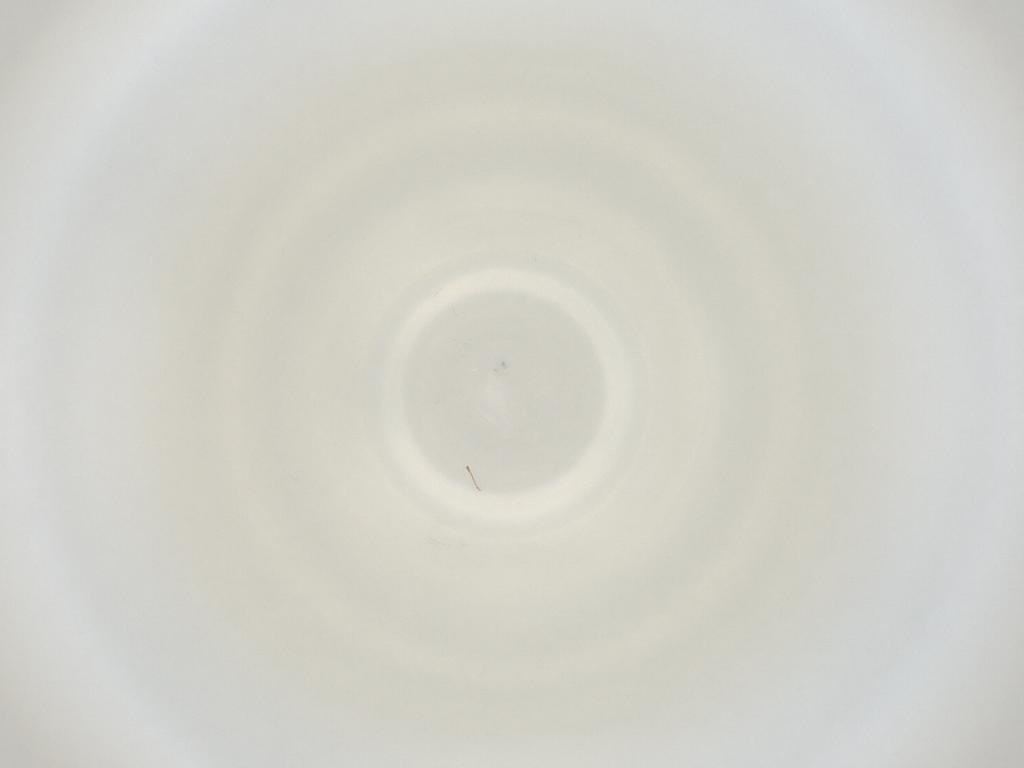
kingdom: Animalia
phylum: Arthropoda
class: Insecta
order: Diptera
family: Cecidomyiidae
